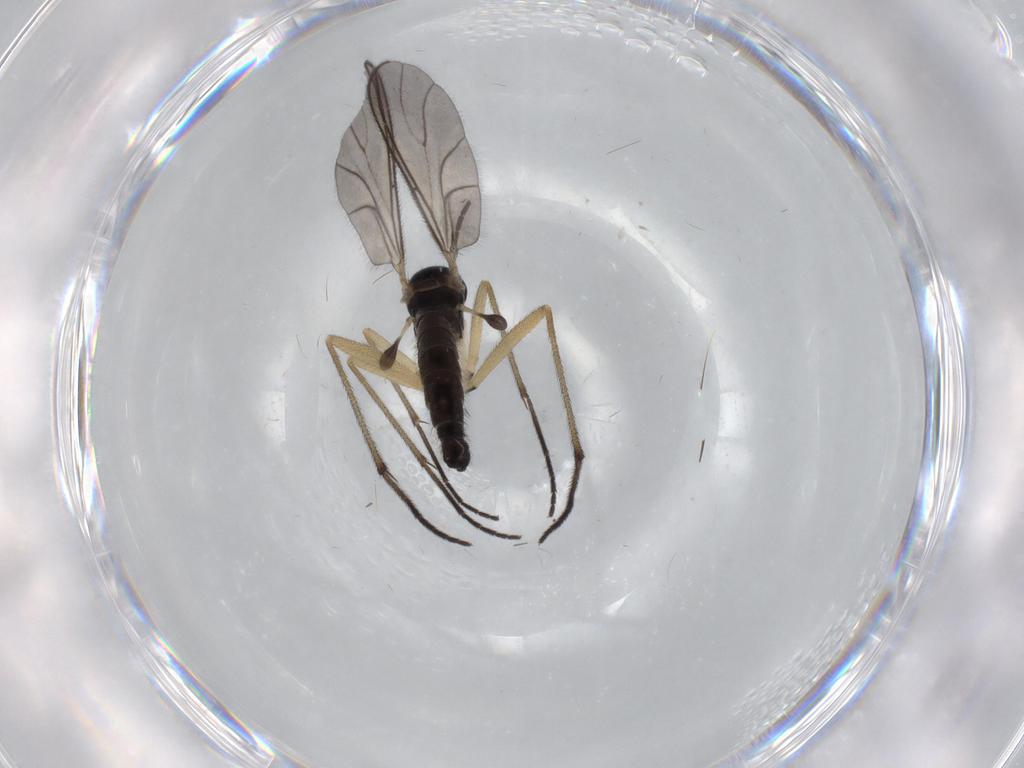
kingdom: Animalia
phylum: Arthropoda
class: Insecta
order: Diptera
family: Sciaridae
